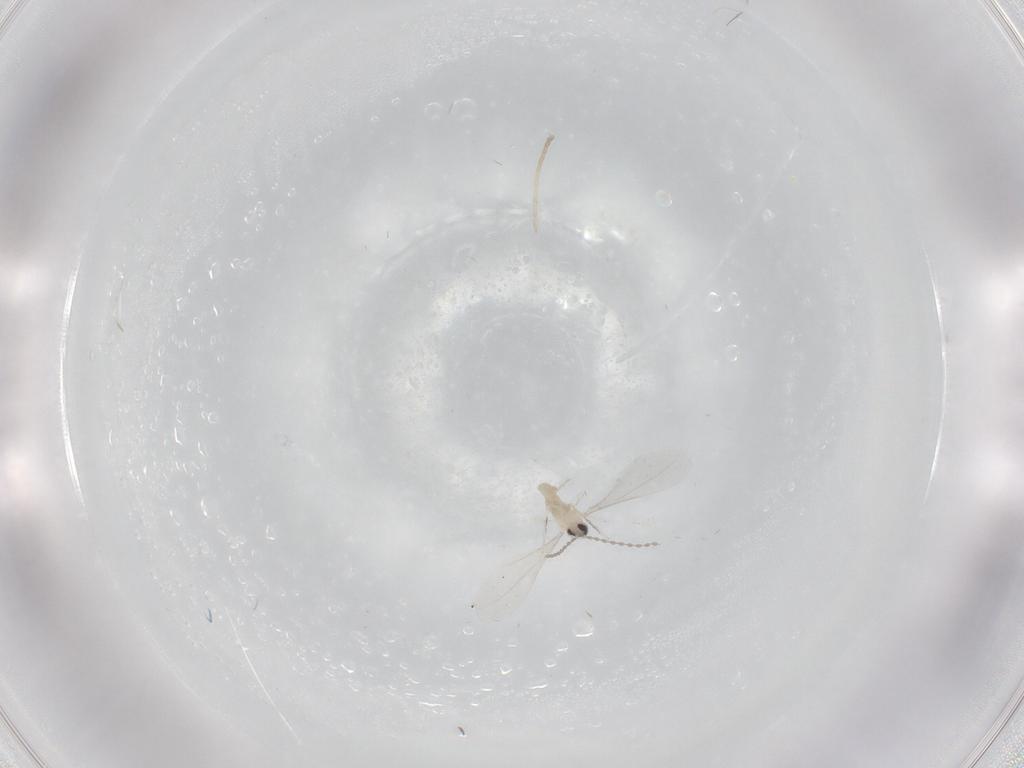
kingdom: Animalia
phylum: Arthropoda
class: Insecta
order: Diptera
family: Cecidomyiidae
